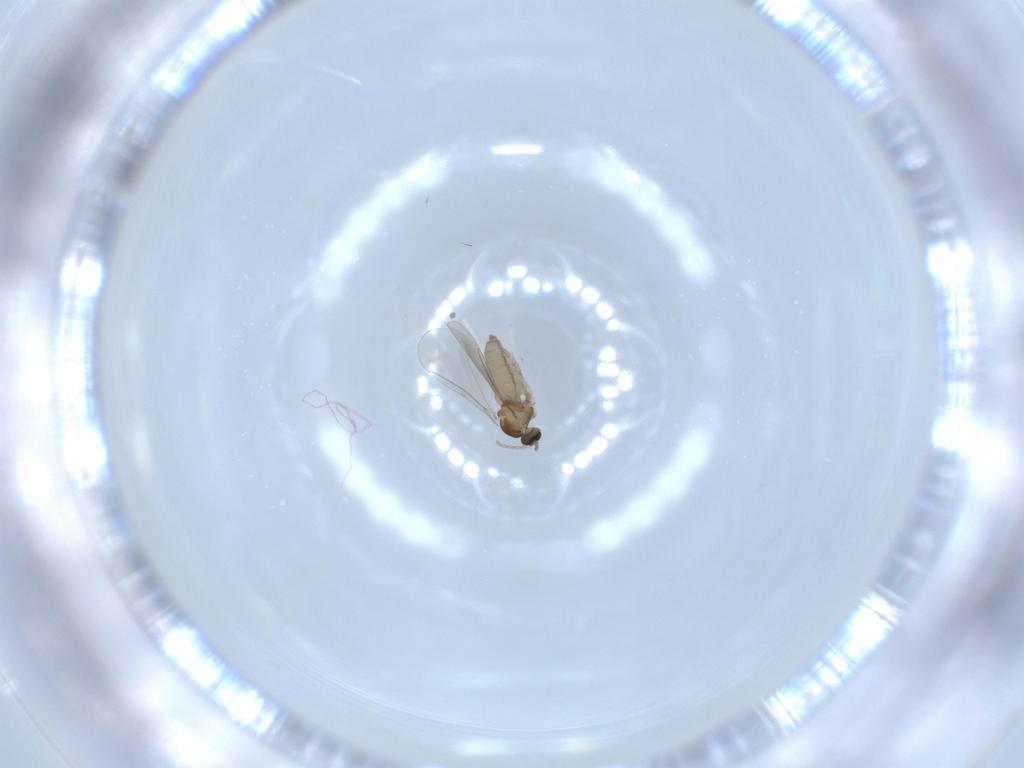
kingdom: Animalia
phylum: Arthropoda
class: Insecta
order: Diptera
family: Cecidomyiidae
